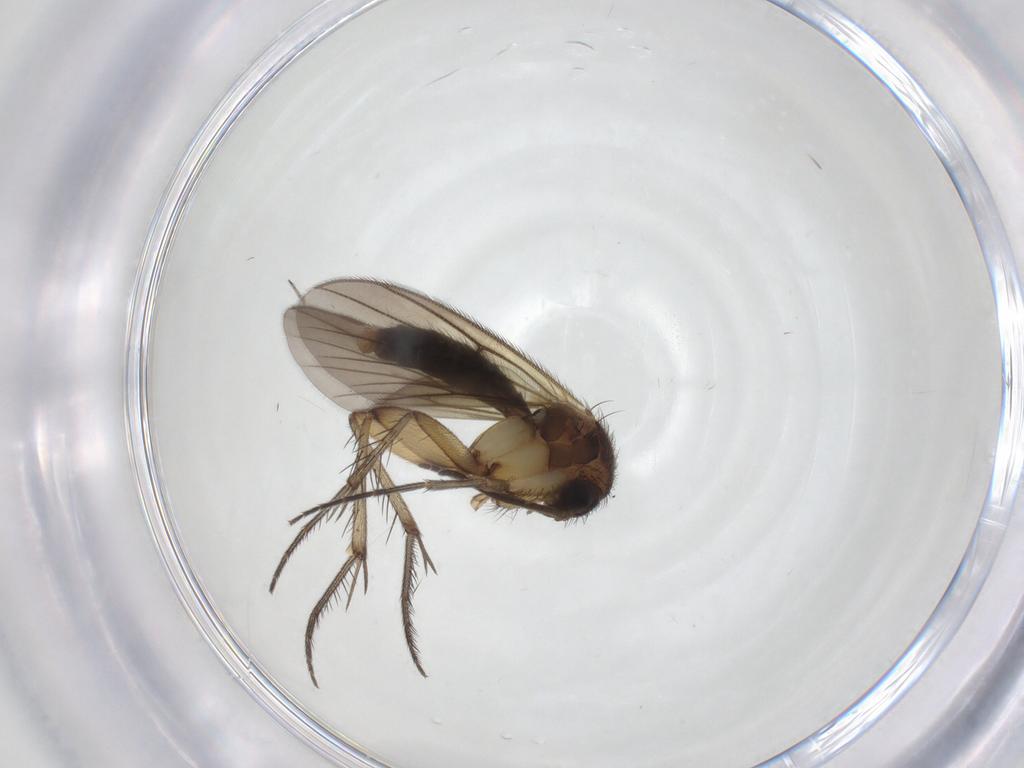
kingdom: Animalia
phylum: Arthropoda
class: Insecta
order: Diptera
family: Ceratopogonidae
